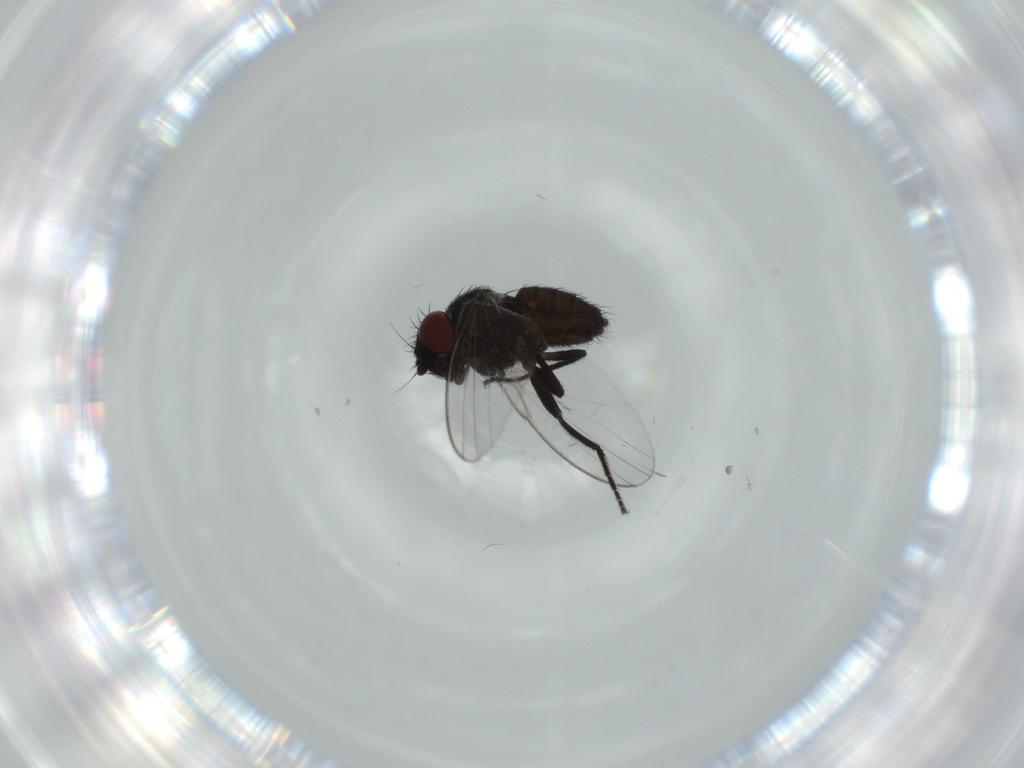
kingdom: Animalia
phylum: Arthropoda
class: Insecta
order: Diptera
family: Milichiidae
